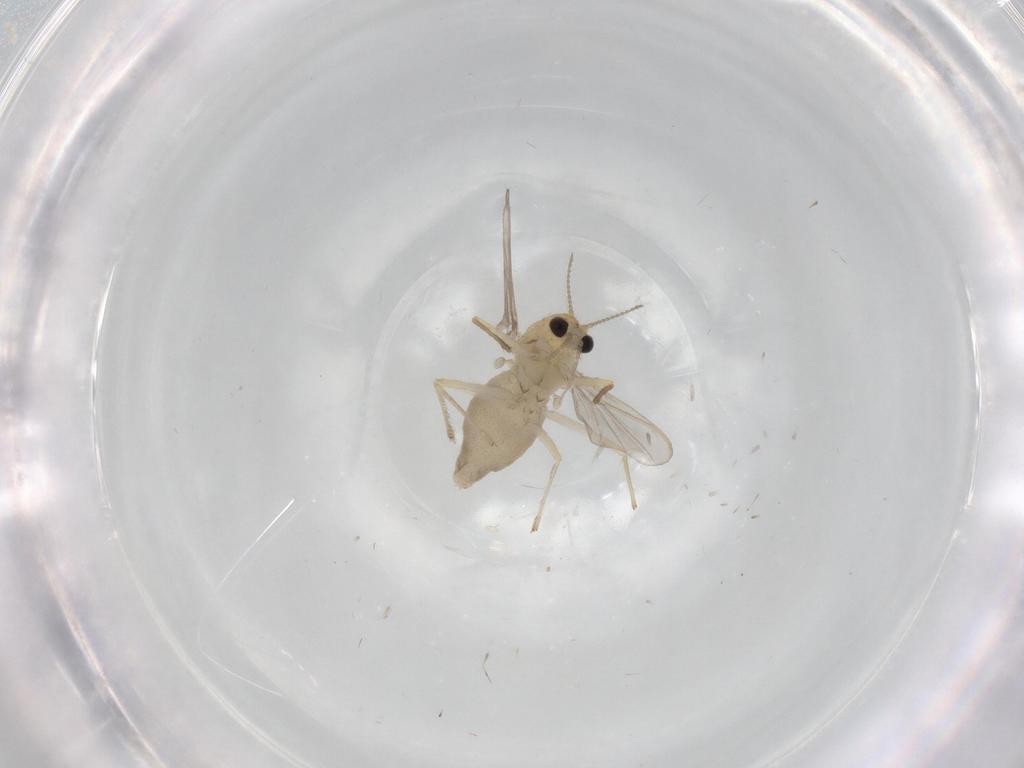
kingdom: Animalia
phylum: Arthropoda
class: Insecta
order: Diptera
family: Chironomidae
